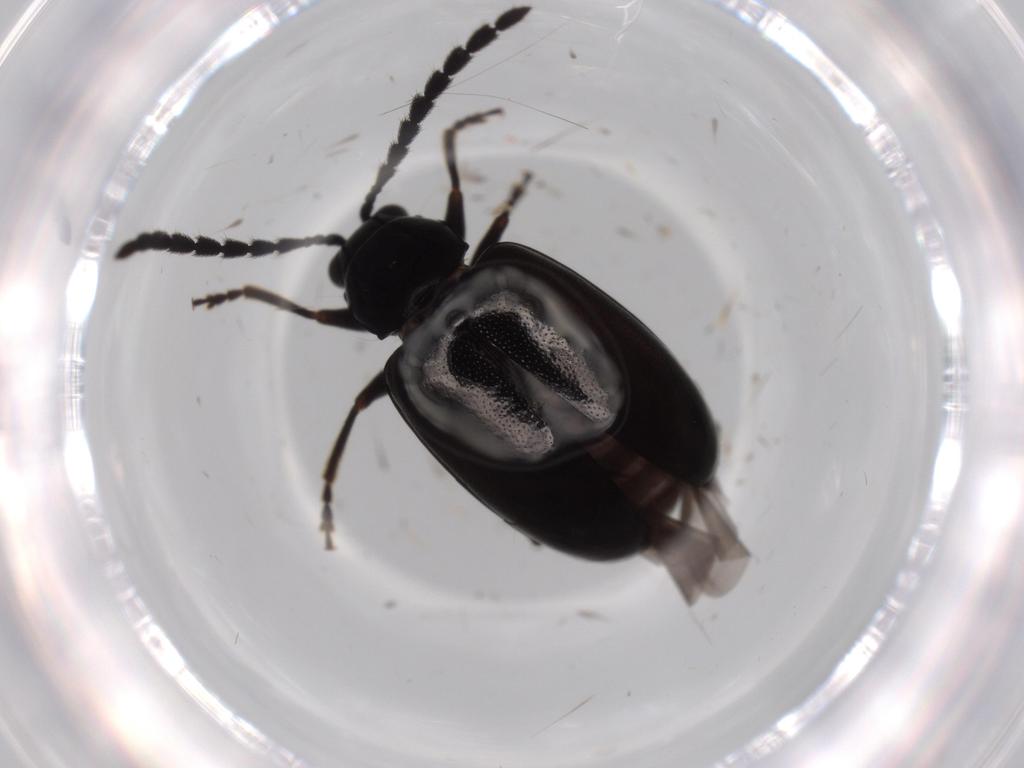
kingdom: Animalia
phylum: Arthropoda
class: Insecta
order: Coleoptera
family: Chrysomelidae
